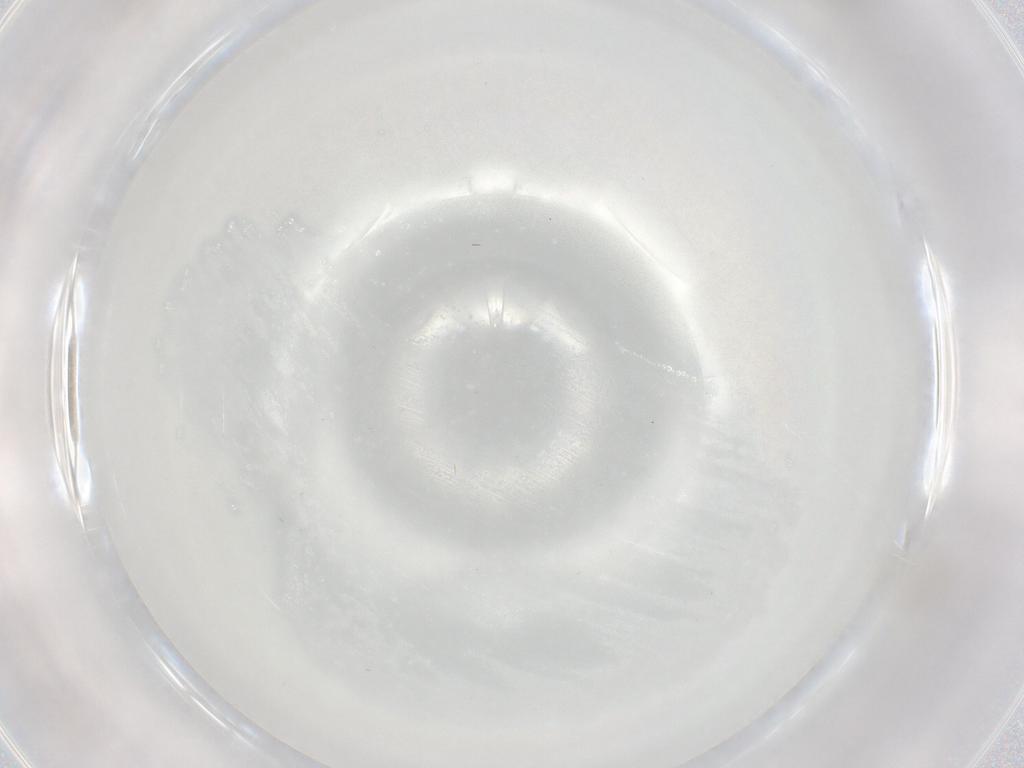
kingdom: Animalia
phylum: Arthropoda
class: Insecta
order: Diptera
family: Cecidomyiidae
